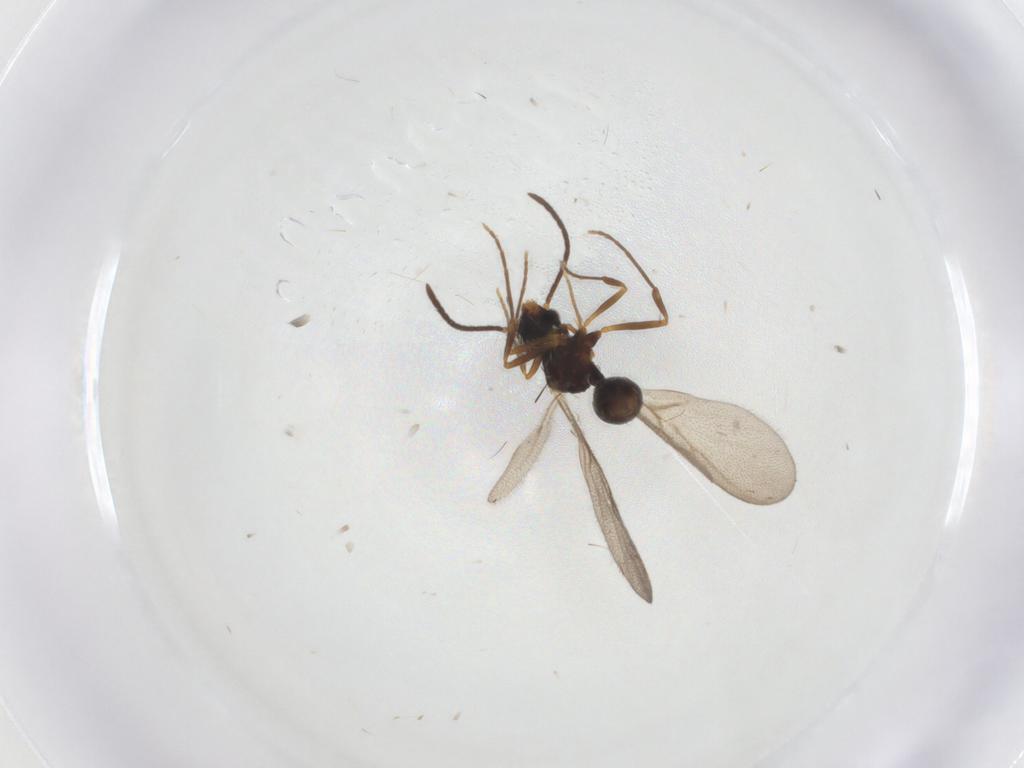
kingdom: Animalia
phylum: Arthropoda
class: Insecta
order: Hymenoptera
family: Formicidae
